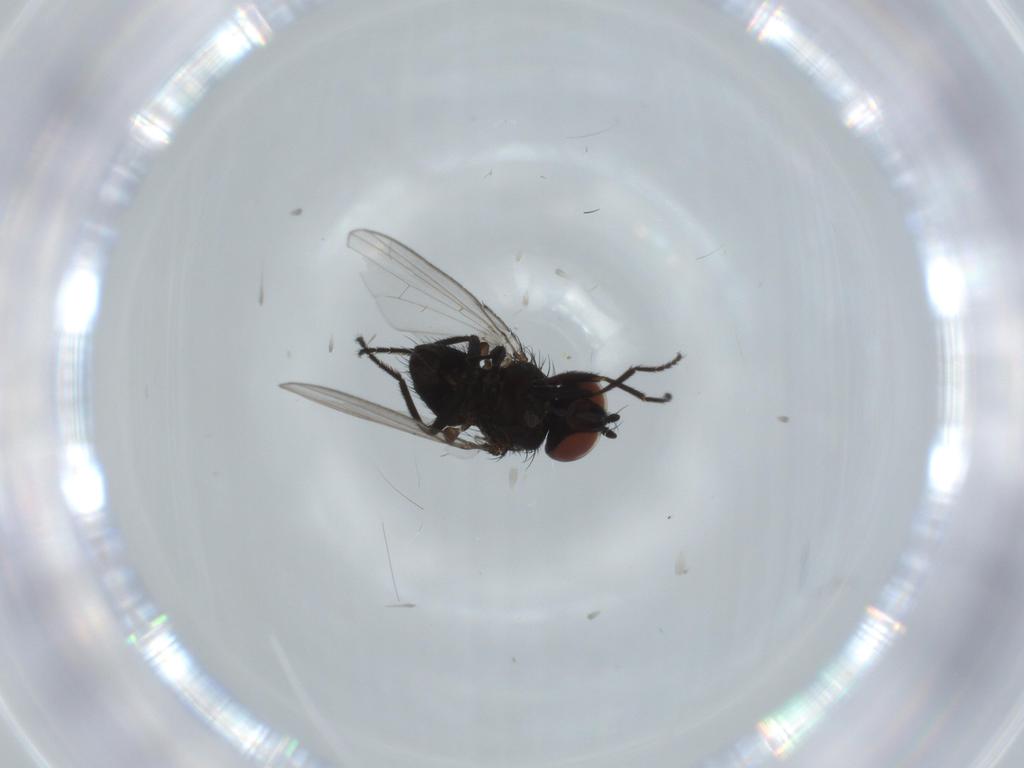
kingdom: Animalia
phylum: Arthropoda
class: Insecta
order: Diptera
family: Milichiidae
